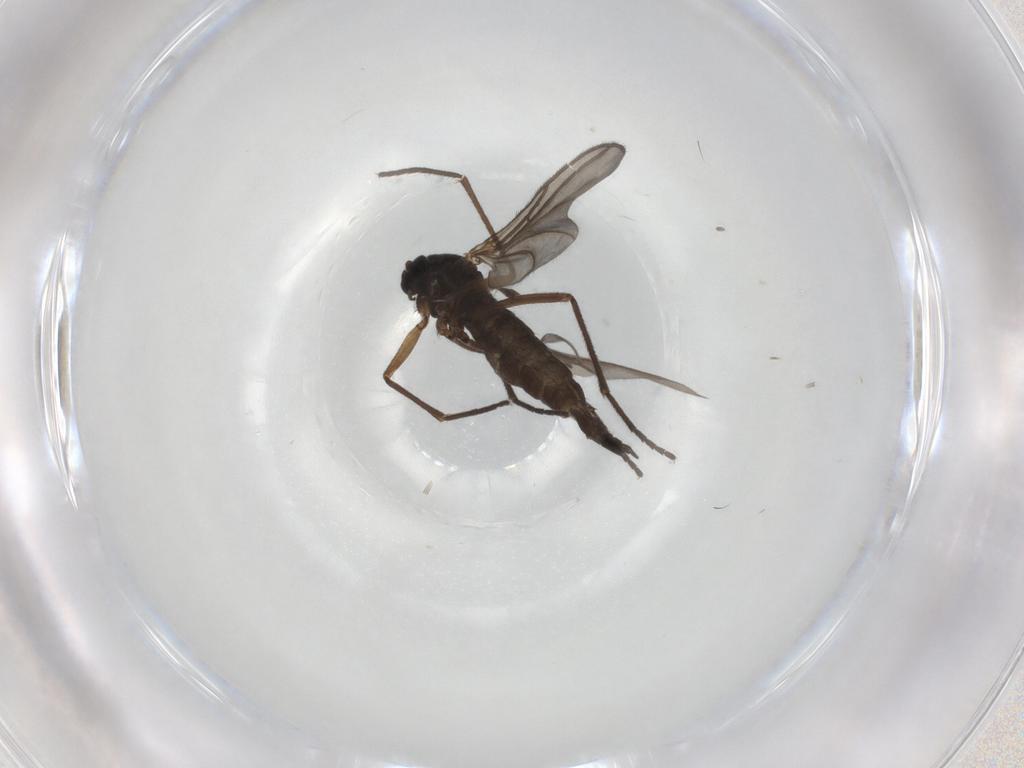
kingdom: Animalia
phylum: Arthropoda
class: Insecta
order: Diptera
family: Sciaridae
